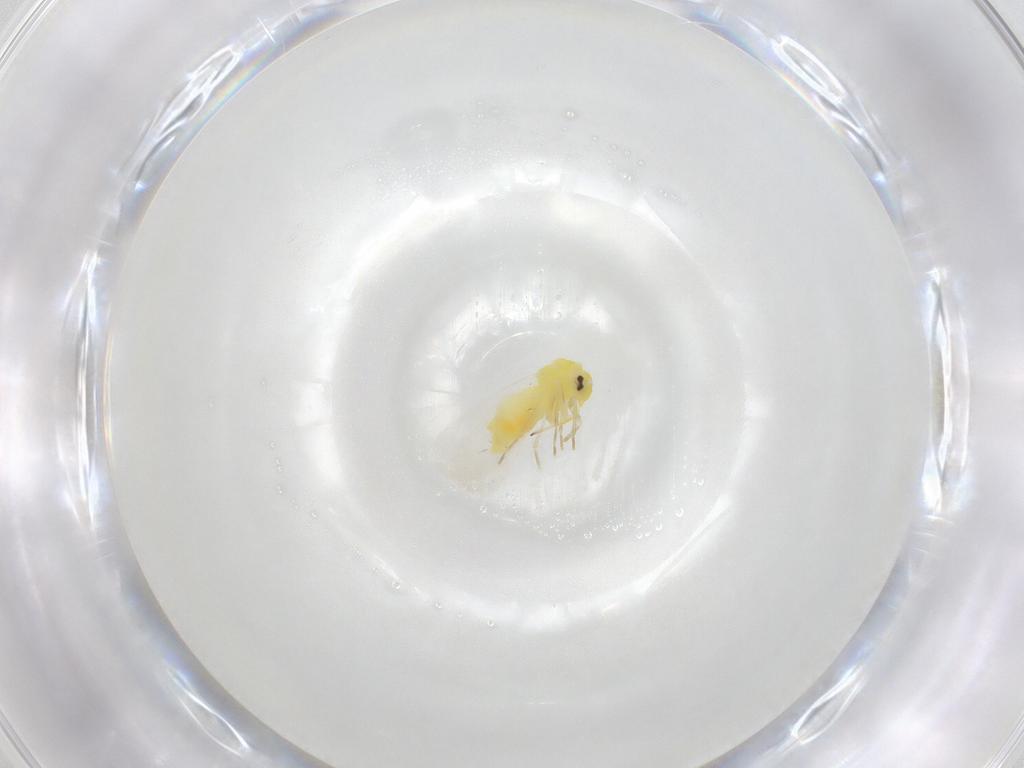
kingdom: Animalia
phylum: Arthropoda
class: Insecta
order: Hemiptera
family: Aleyrodidae
